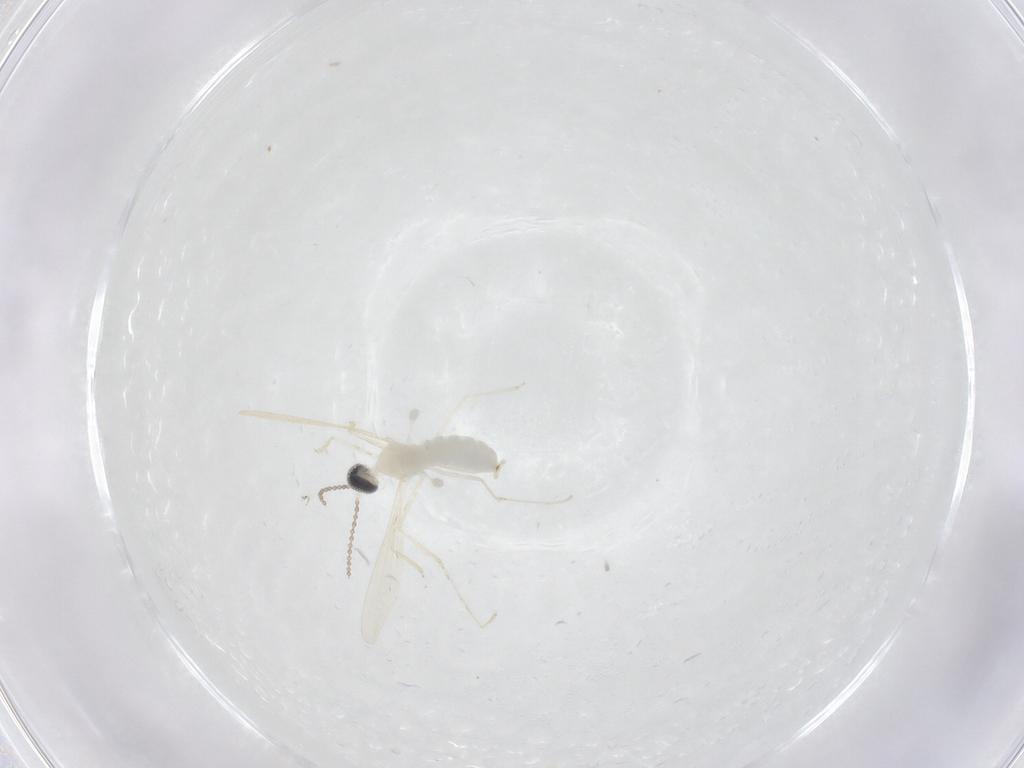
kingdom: Animalia
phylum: Arthropoda
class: Insecta
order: Diptera
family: Cecidomyiidae
